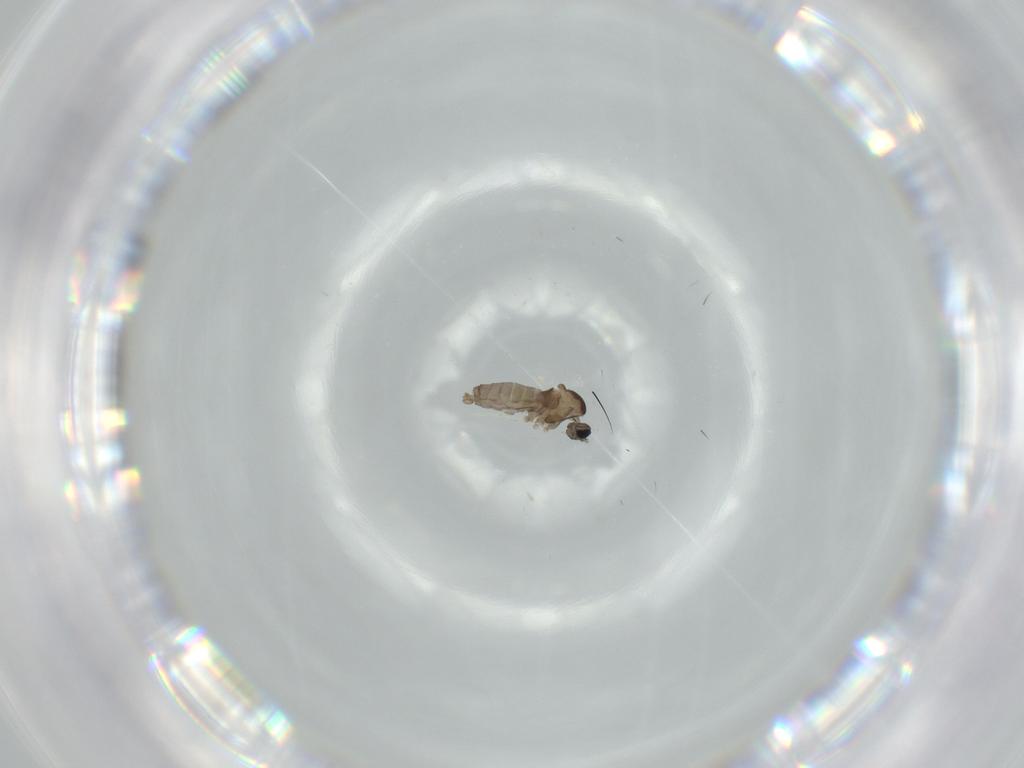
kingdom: Animalia
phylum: Arthropoda
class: Insecta
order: Diptera
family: Cecidomyiidae
